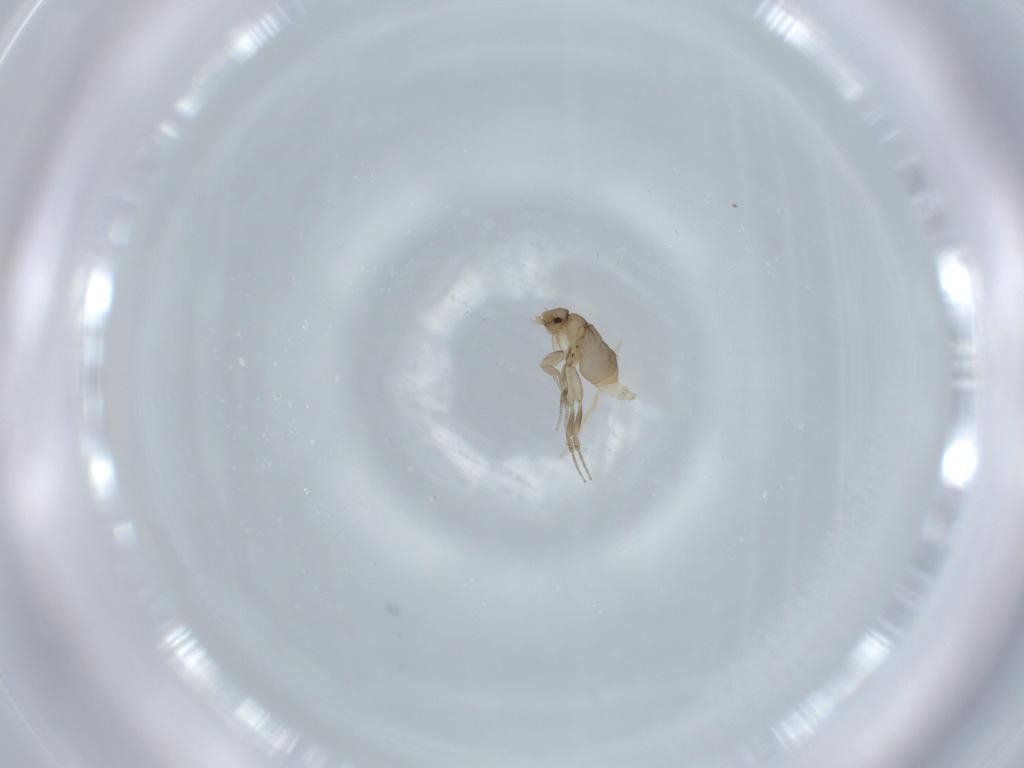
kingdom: Animalia
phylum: Arthropoda
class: Insecta
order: Diptera
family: Phoridae
